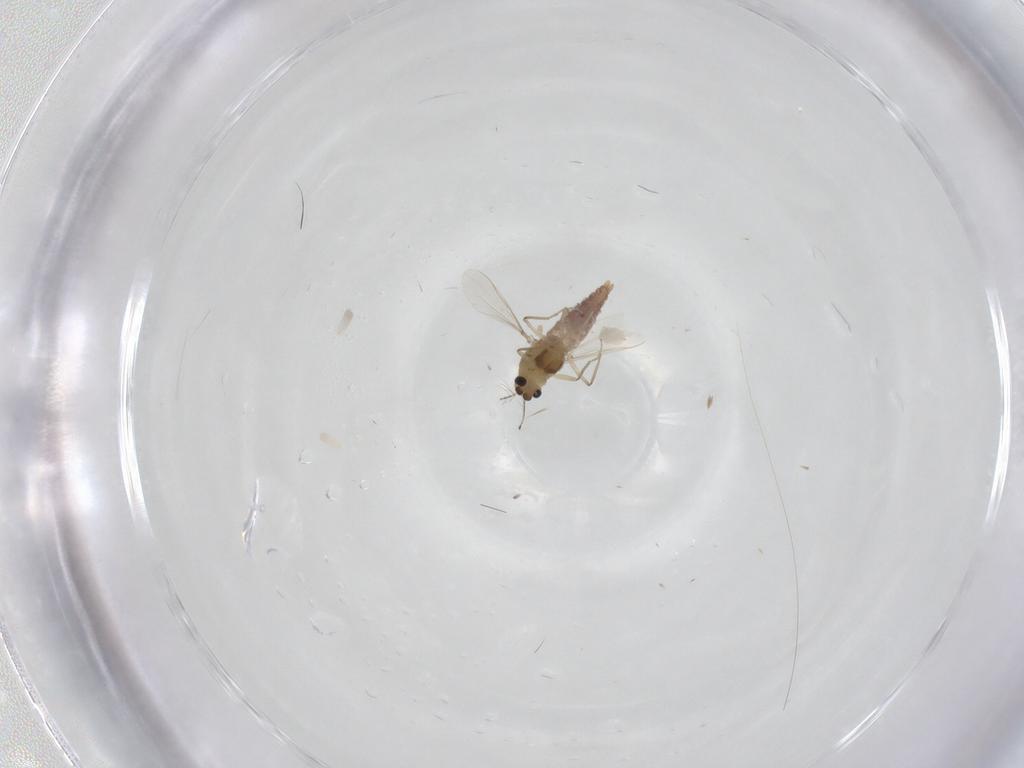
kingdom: Animalia
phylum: Arthropoda
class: Insecta
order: Diptera
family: Chironomidae
